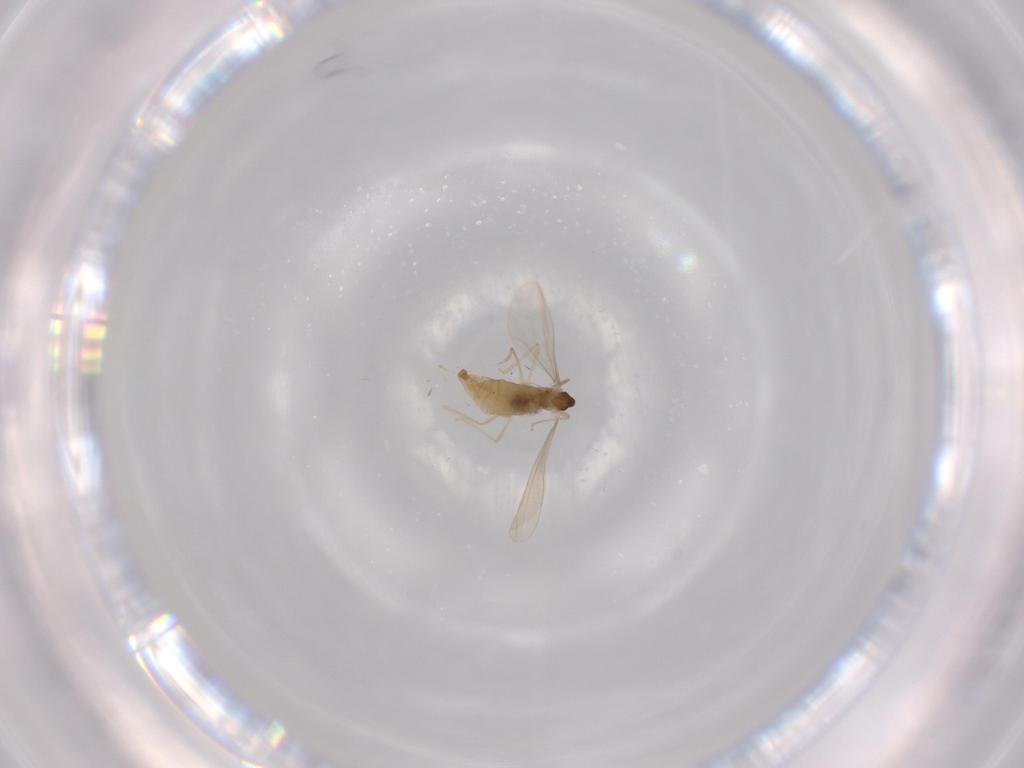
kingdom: Animalia
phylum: Arthropoda
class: Insecta
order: Diptera
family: Cecidomyiidae
